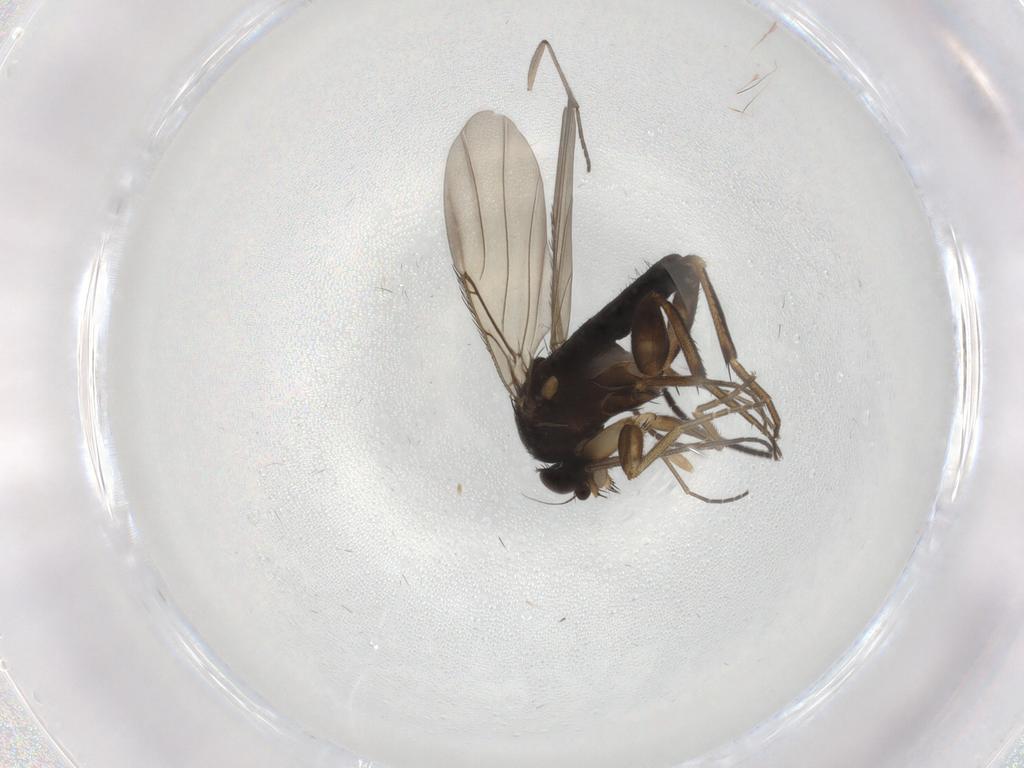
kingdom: Animalia
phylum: Arthropoda
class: Insecta
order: Diptera
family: Phoridae
